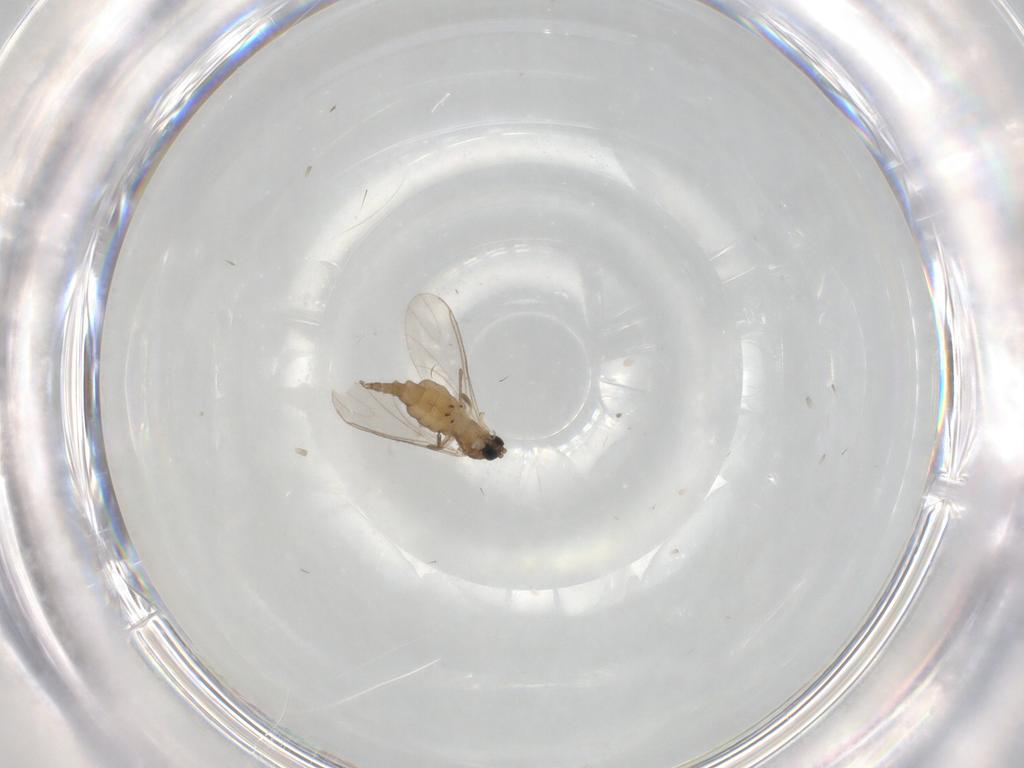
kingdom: Animalia
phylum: Arthropoda
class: Insecta
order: Diptera
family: Sciaridae
